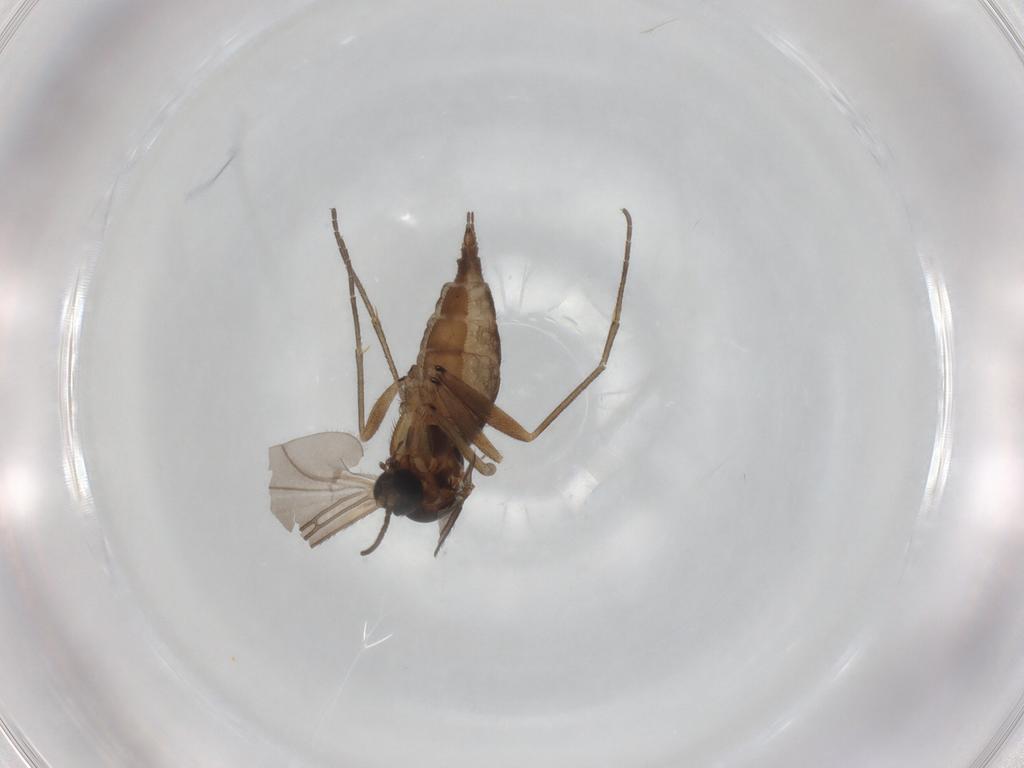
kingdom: Animalia
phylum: Arthropoda
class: Insecta
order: Diptera
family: Sciaridae
